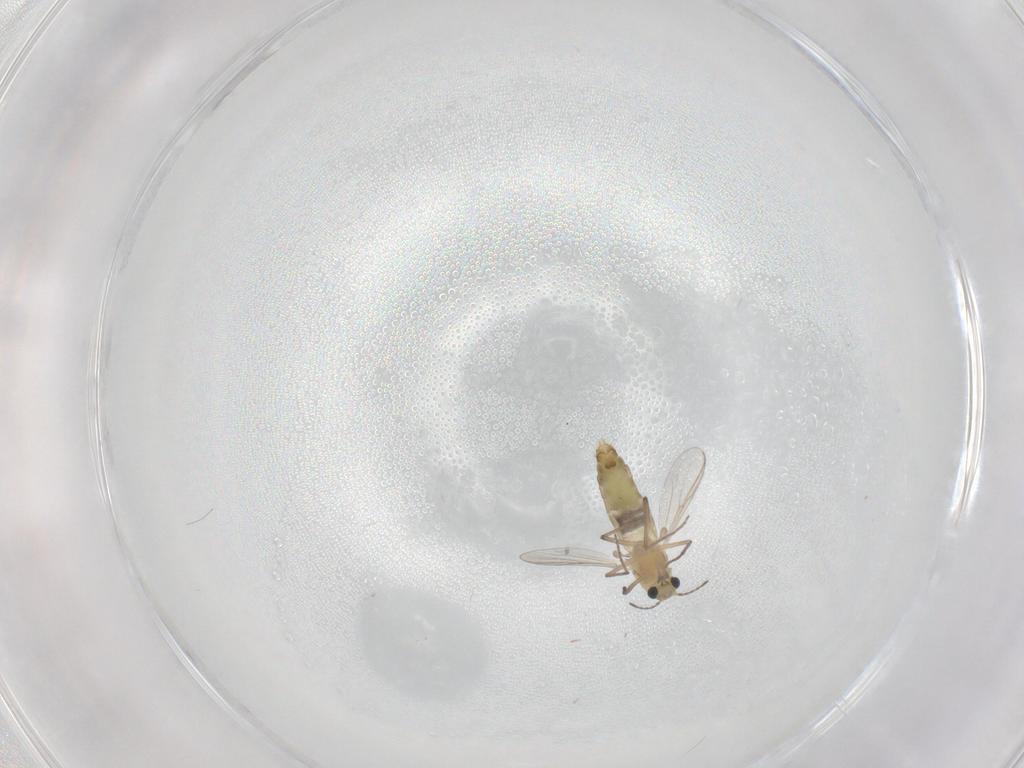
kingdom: Animalia
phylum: Arthropoda
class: Insecta
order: Diptera
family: Chironomidae
